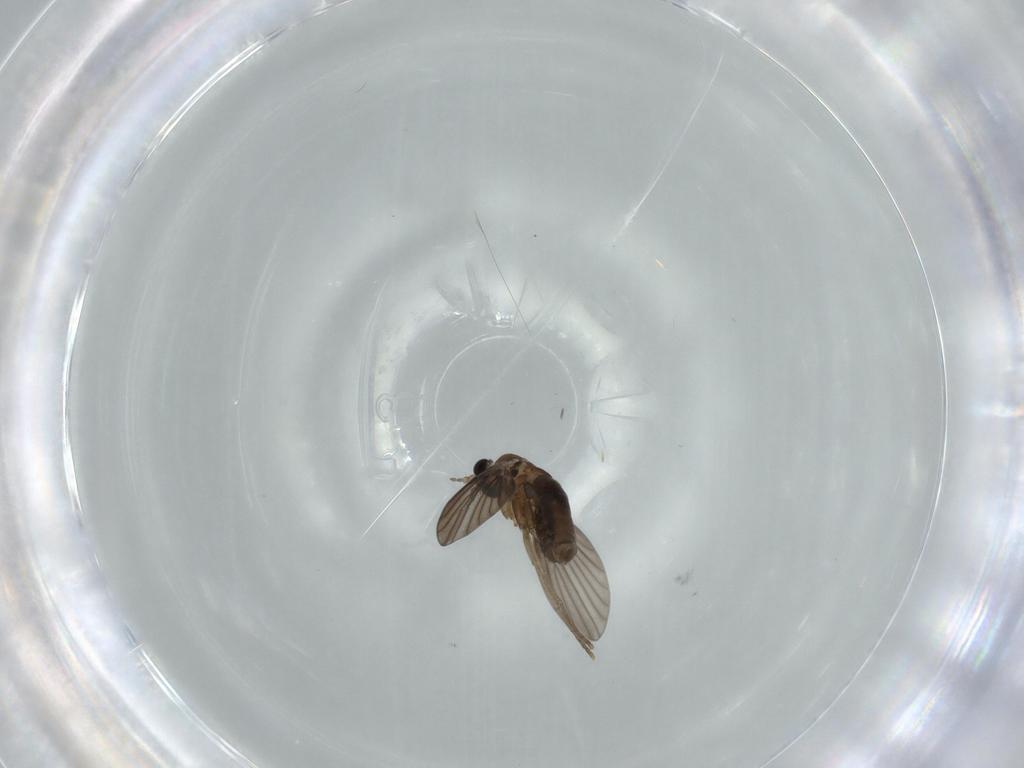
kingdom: Animalia
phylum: Arthropoda
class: Insecta
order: Diptera
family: Psychodidae
